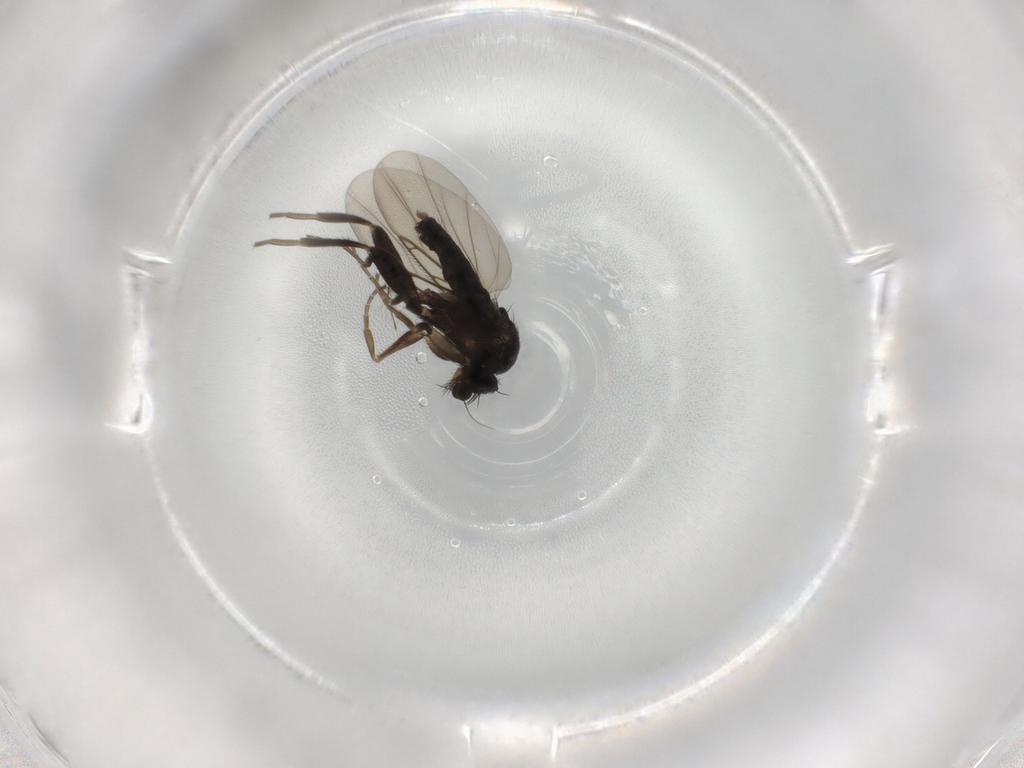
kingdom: Animalia
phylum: Arthropoda
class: Insecta
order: Diptera
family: Phoridae
